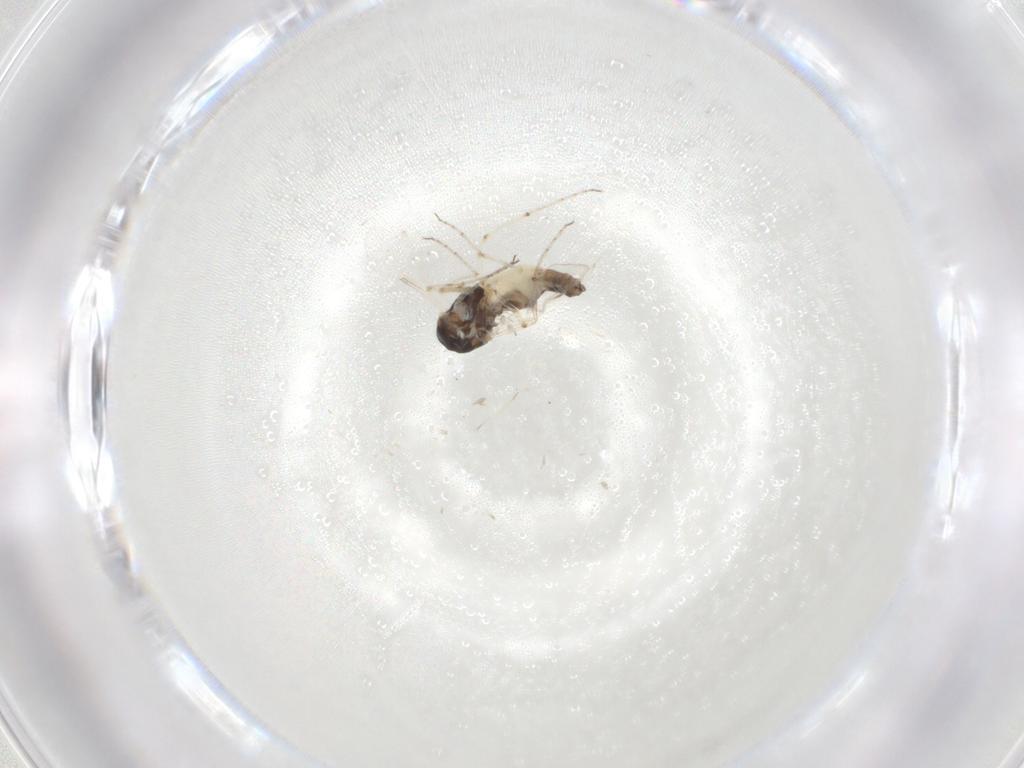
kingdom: Animalia
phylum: Arthropoda
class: Insecta
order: Diptera
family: Ceratopogonidae
